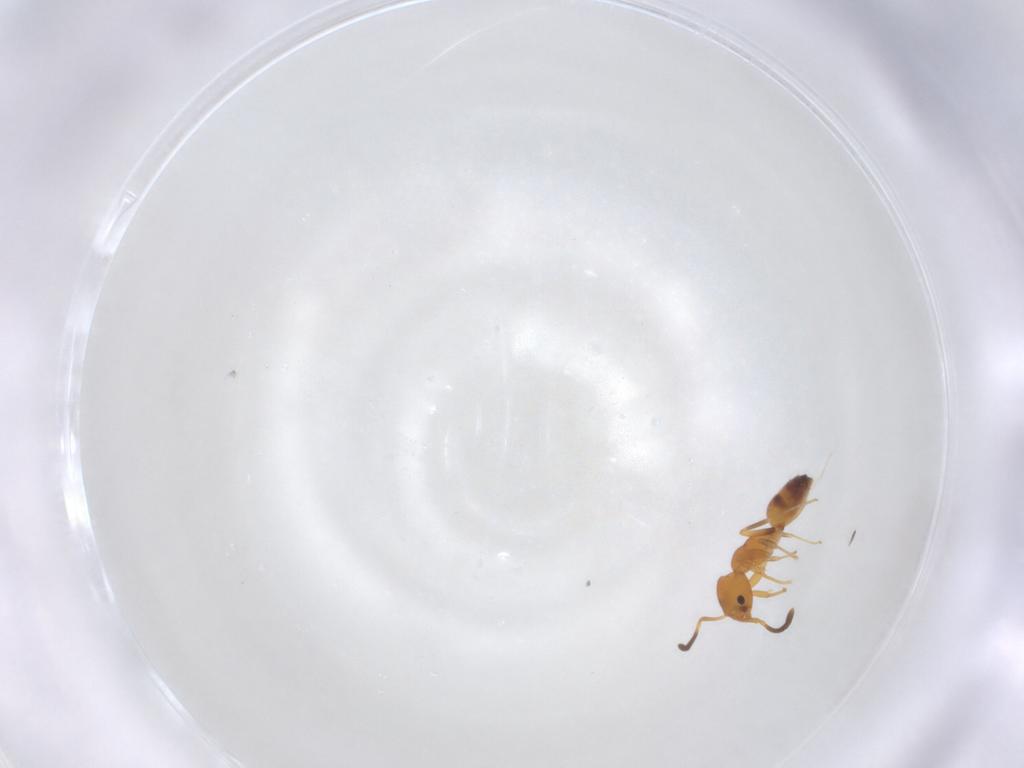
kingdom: Animalia
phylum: Arthropoda
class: Insecta
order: Hymenoptera
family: Formicidae
